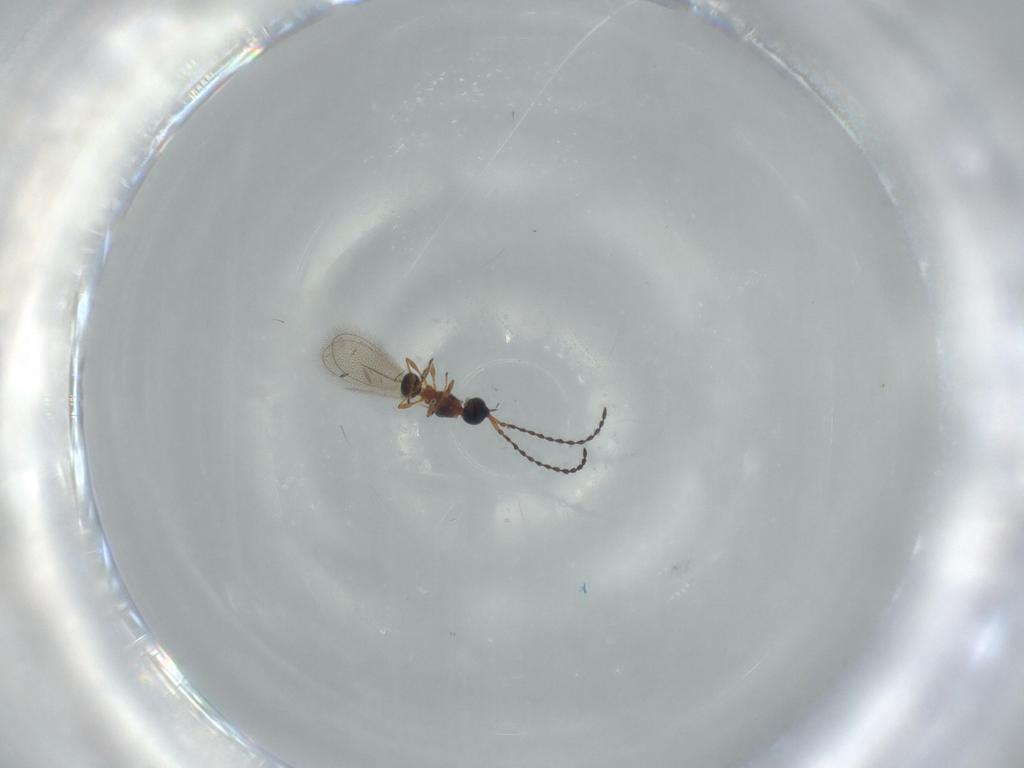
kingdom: Animalia
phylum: Arthropoda
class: Insecta
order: Hymenoptera
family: Diapriidae
